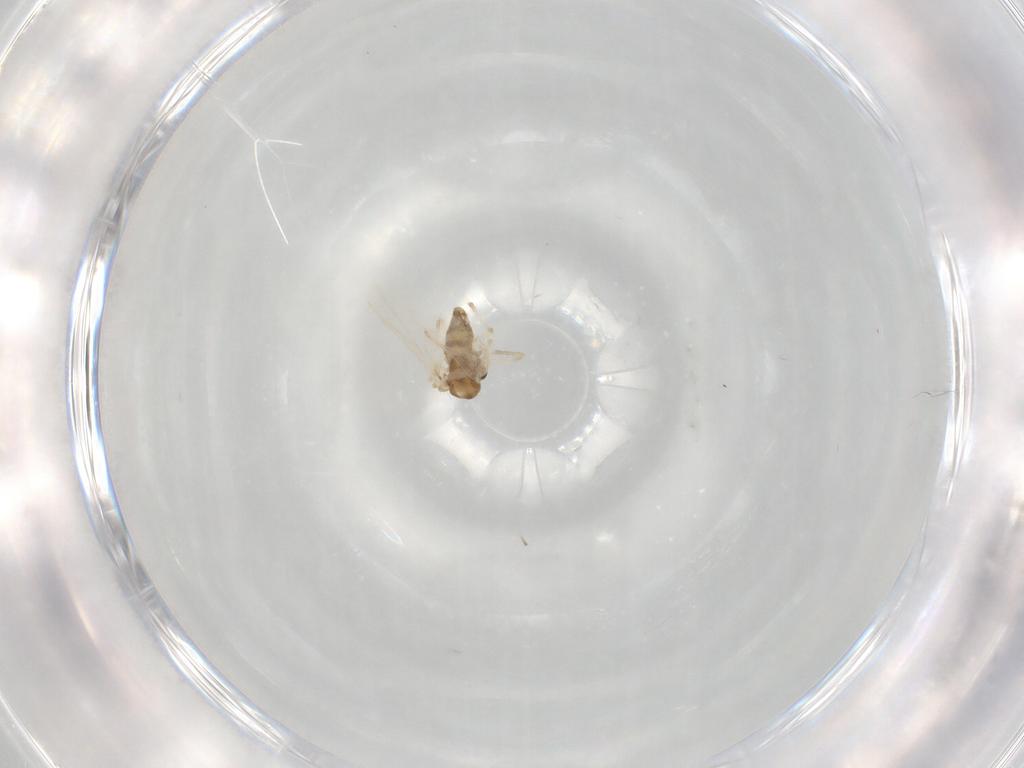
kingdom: Animalia
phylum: Arthropoda
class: Insecta
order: Diptera
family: Chironomidae
